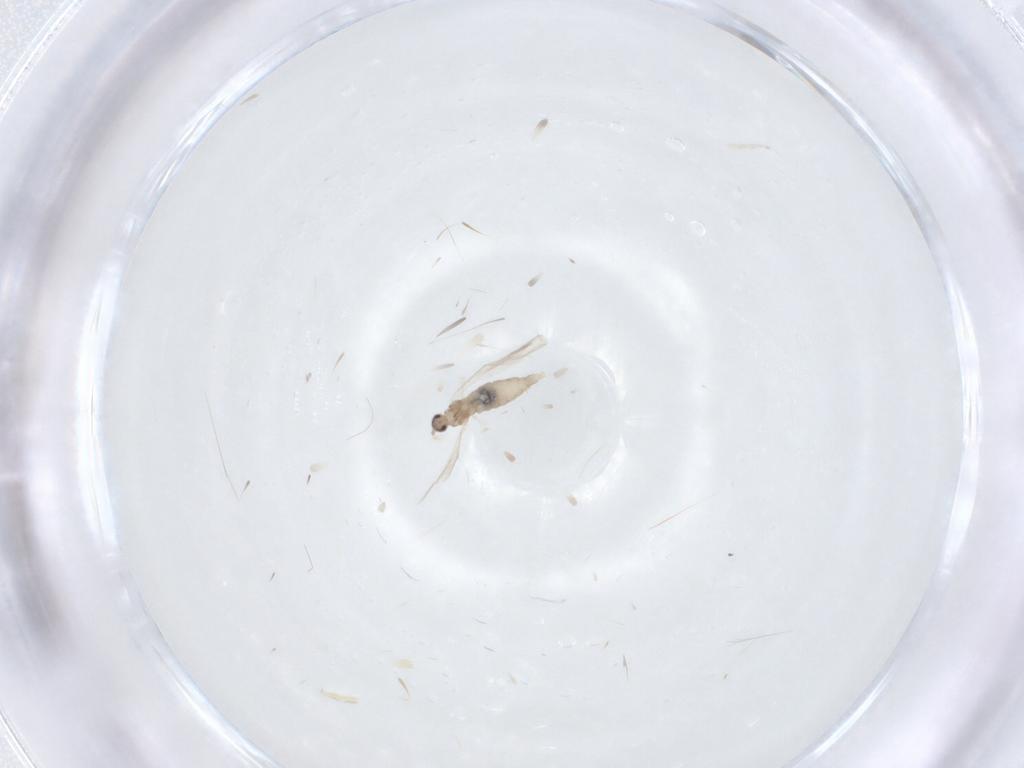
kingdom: Animalia
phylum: Arthropoda
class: Insecta
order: Diptera
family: Cecidomyiidae
